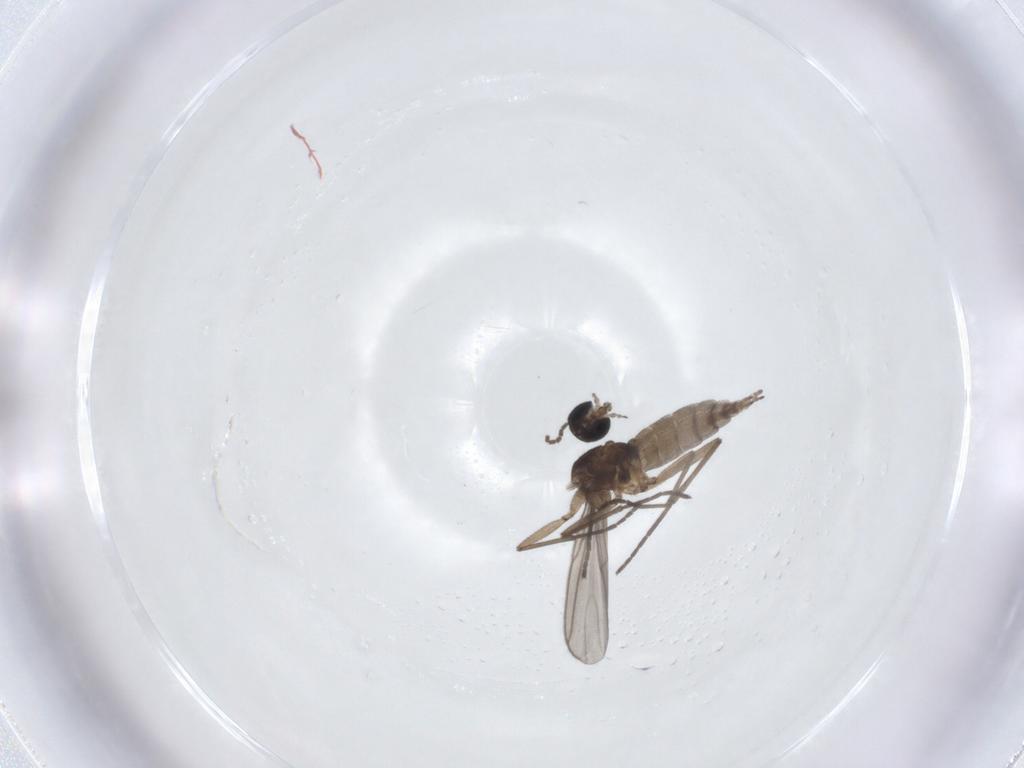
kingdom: Animalia
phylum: Arthropoda
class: Insecta
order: Diptera
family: Sciaridae
